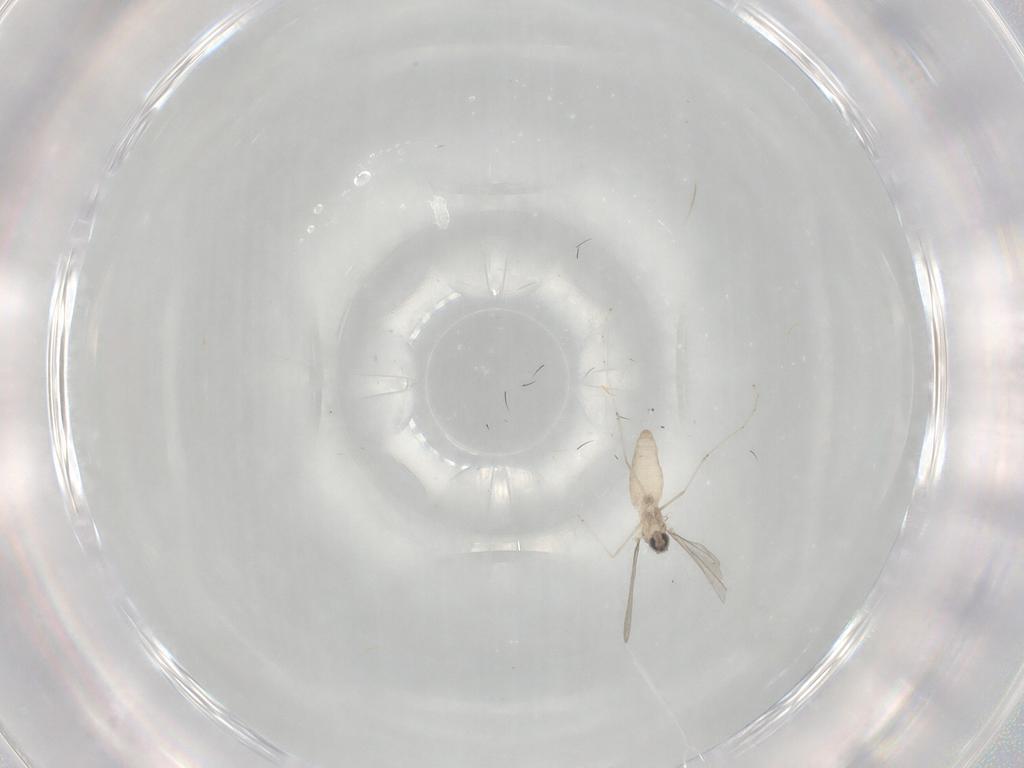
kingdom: Animalia
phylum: Arthropoda
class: Insecta
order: Diptera
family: Cecidomyiidae
